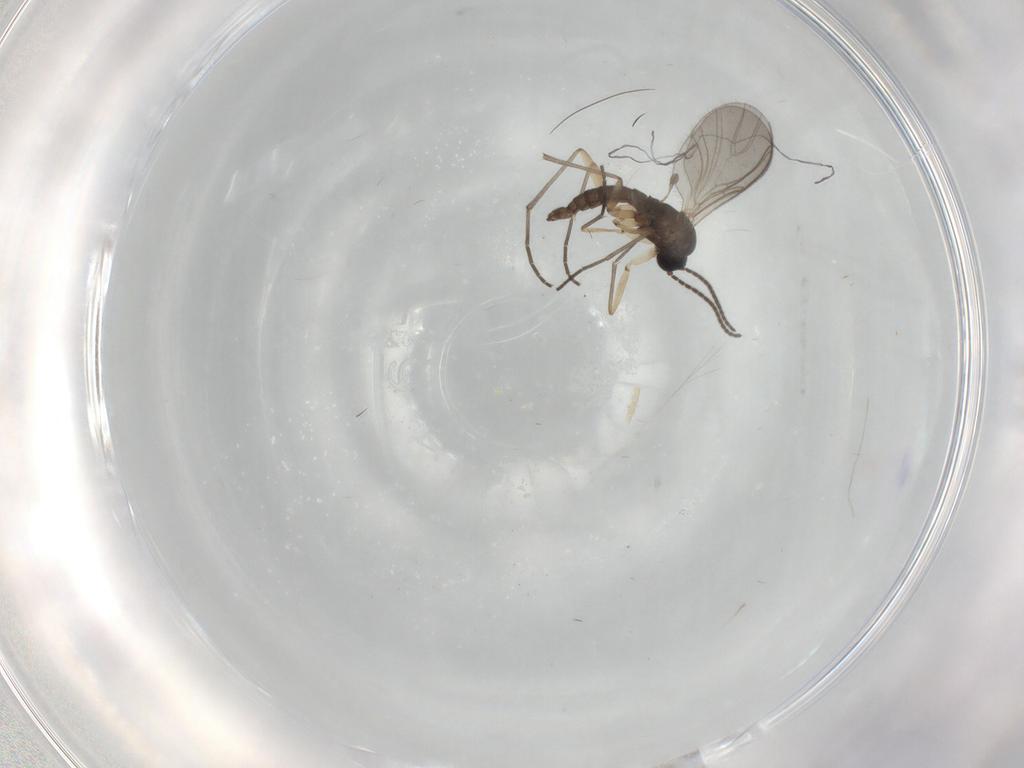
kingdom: Animalia
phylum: Arthropoda
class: Insecta
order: Diptera
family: Sciaridae
